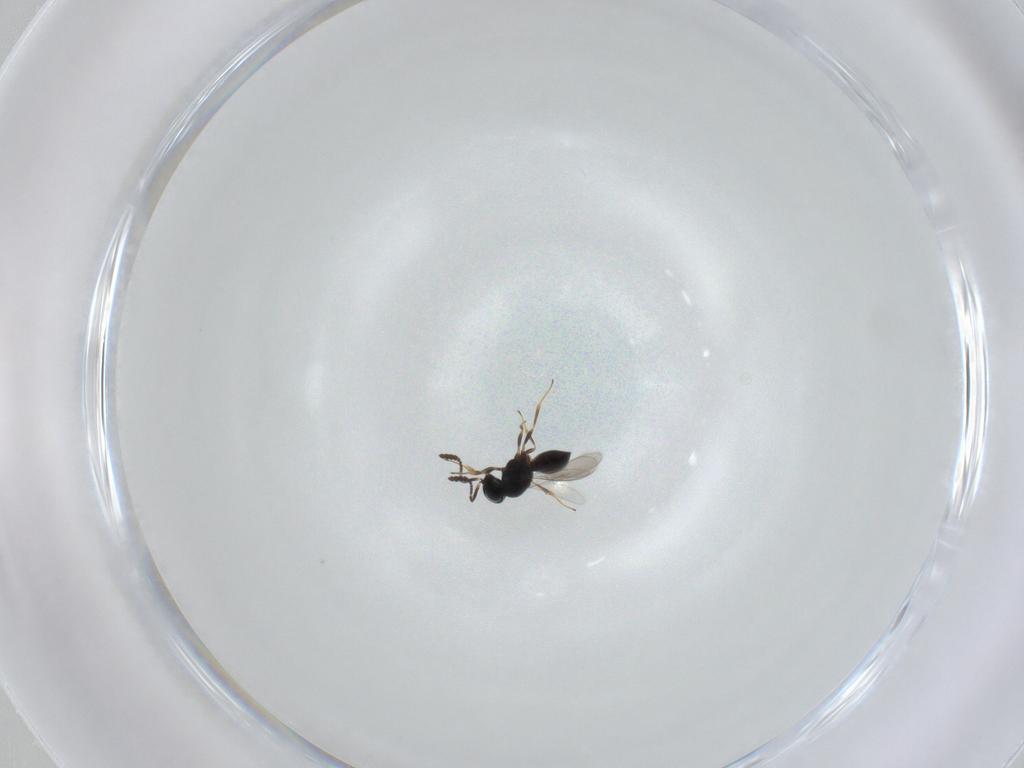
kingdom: Animalia
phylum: Arthropoda
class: Insecta
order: Hymenoptera
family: Scelionidae
